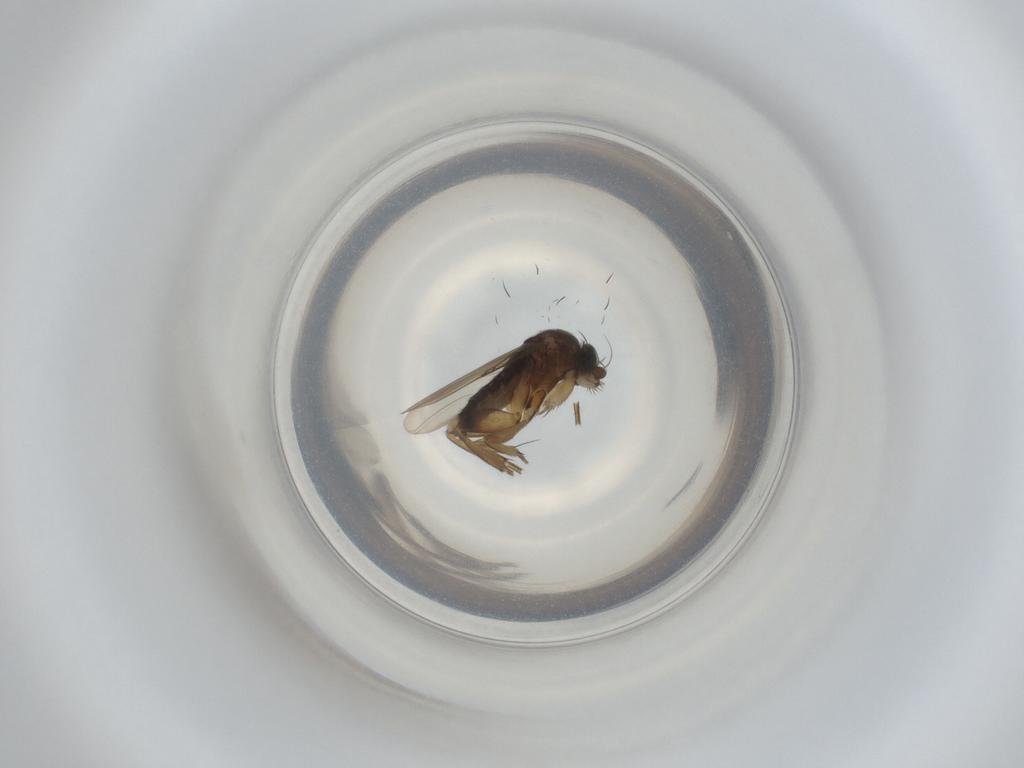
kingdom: Animalia
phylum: Arthropoda
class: Insecta
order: Diptera
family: Phoridae
